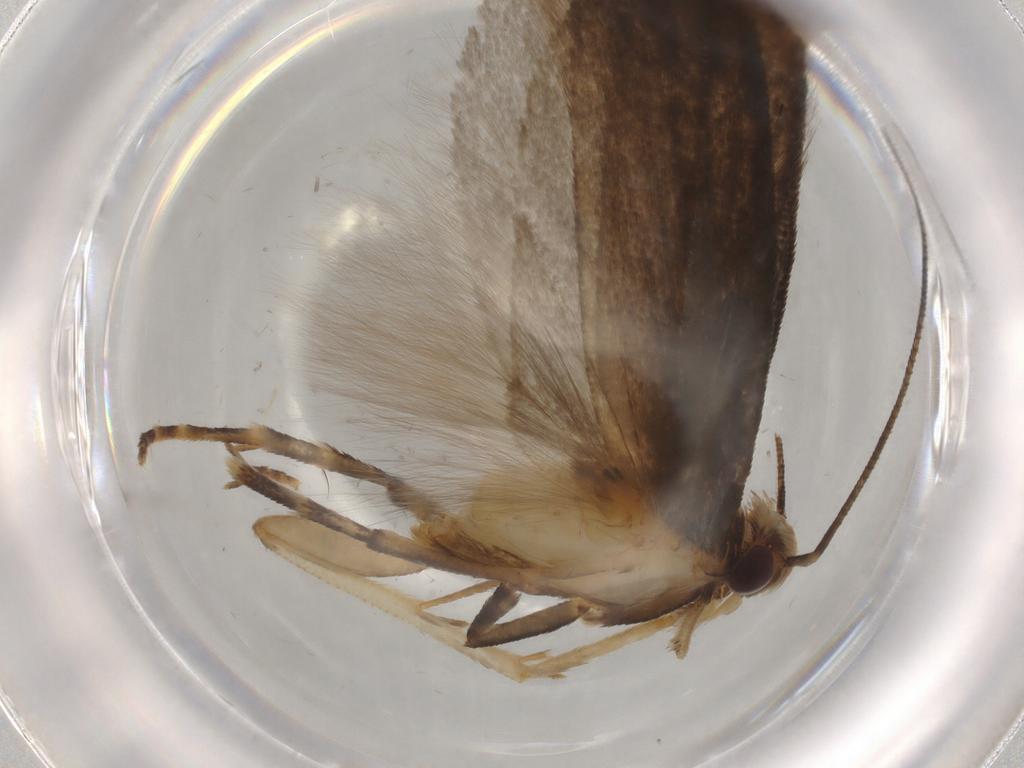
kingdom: Animalia
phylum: Arthropoda
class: Insecta
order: Lepidoptera
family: Gelechiidae
